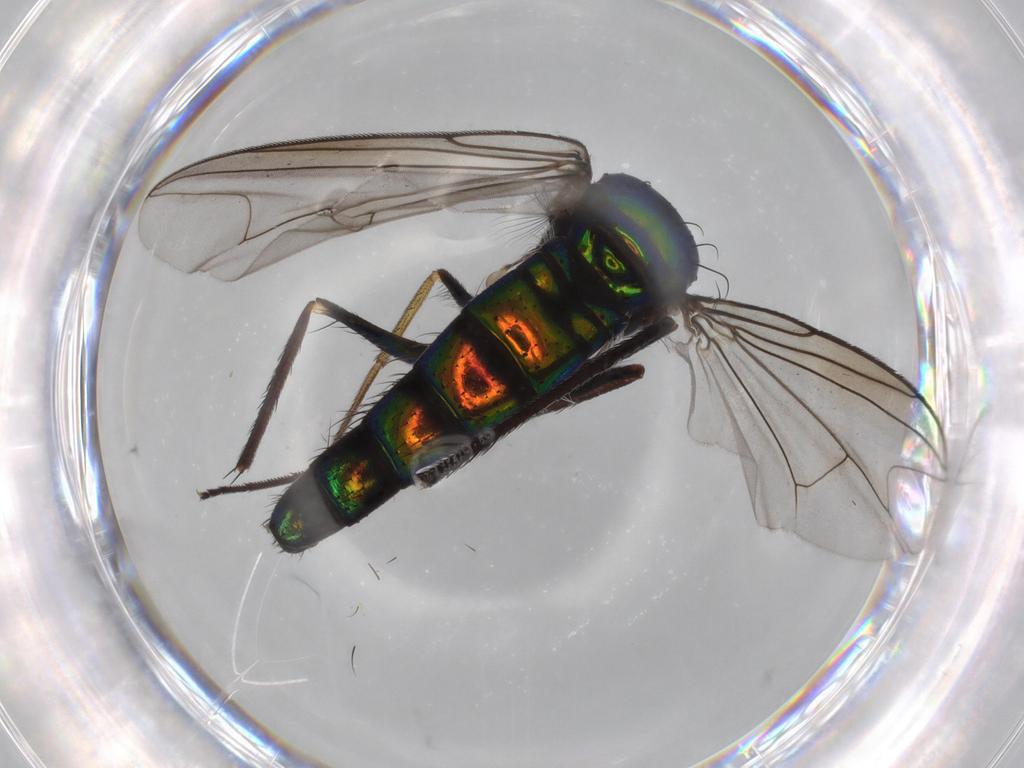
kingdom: Animalia
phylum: Arthropoda
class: Insecta
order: Diptera
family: Dolichopodidae
